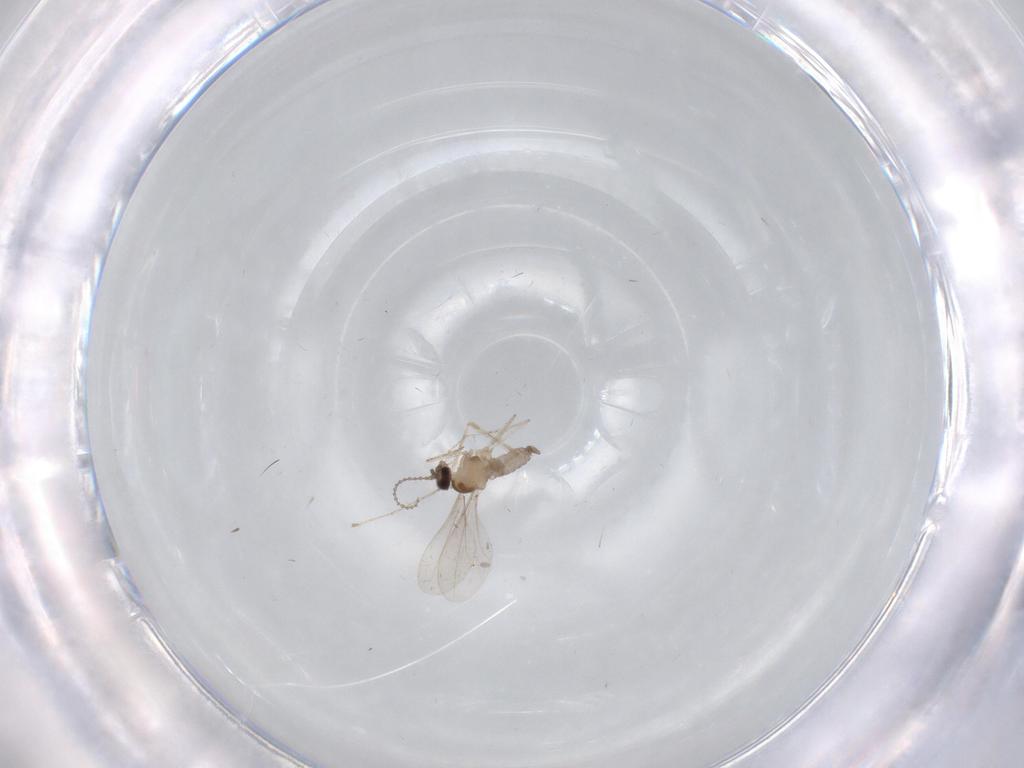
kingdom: Animalia
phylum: Arthropoda
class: Insecta
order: Diptera
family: Cecidomyiidae
